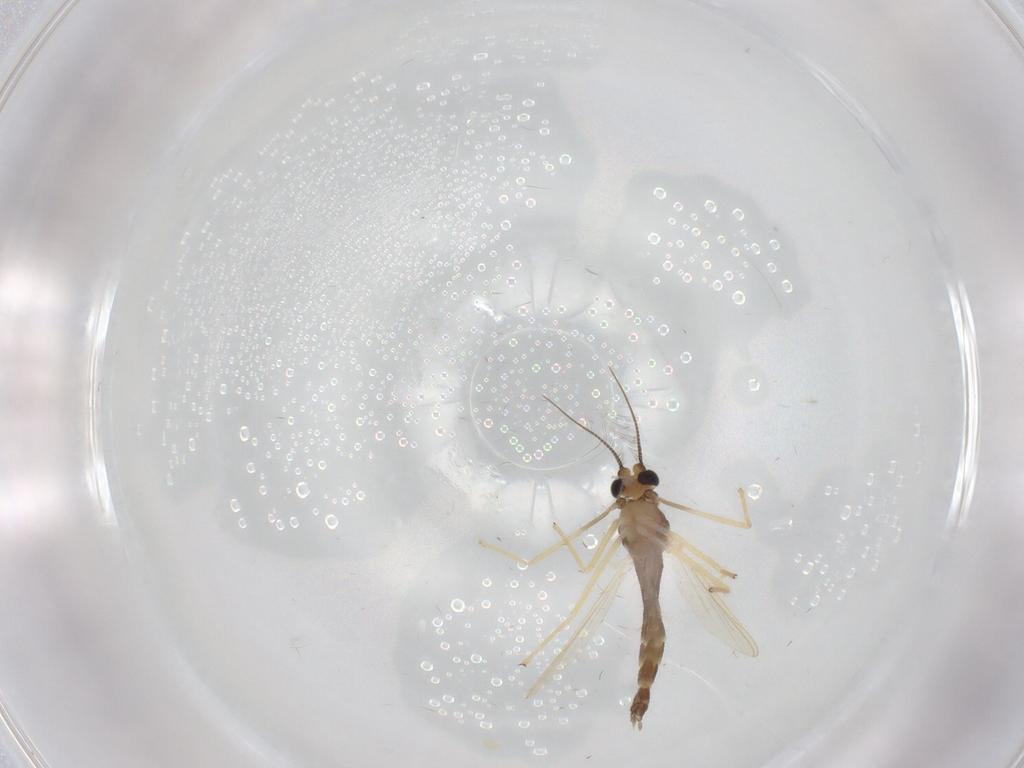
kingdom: Animalia
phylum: Arthropoda
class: Insecta
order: Diptera
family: Chironomidae
